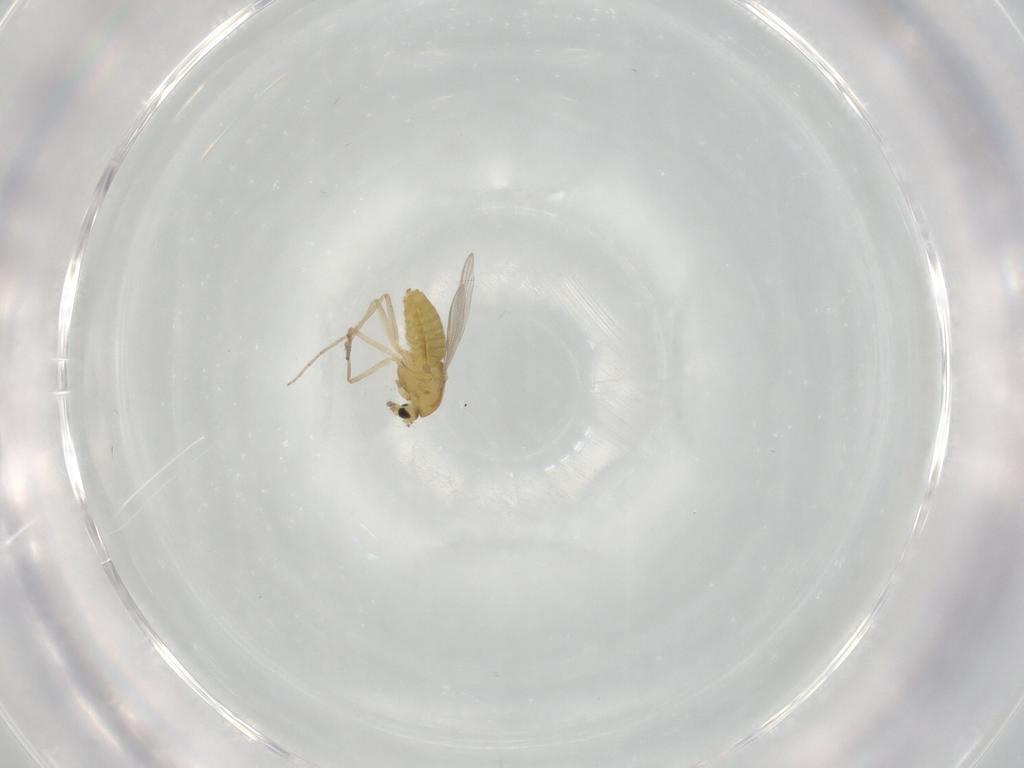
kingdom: Animalia
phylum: Arthropoda
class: Insecta
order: Diptera
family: Chironomidae
